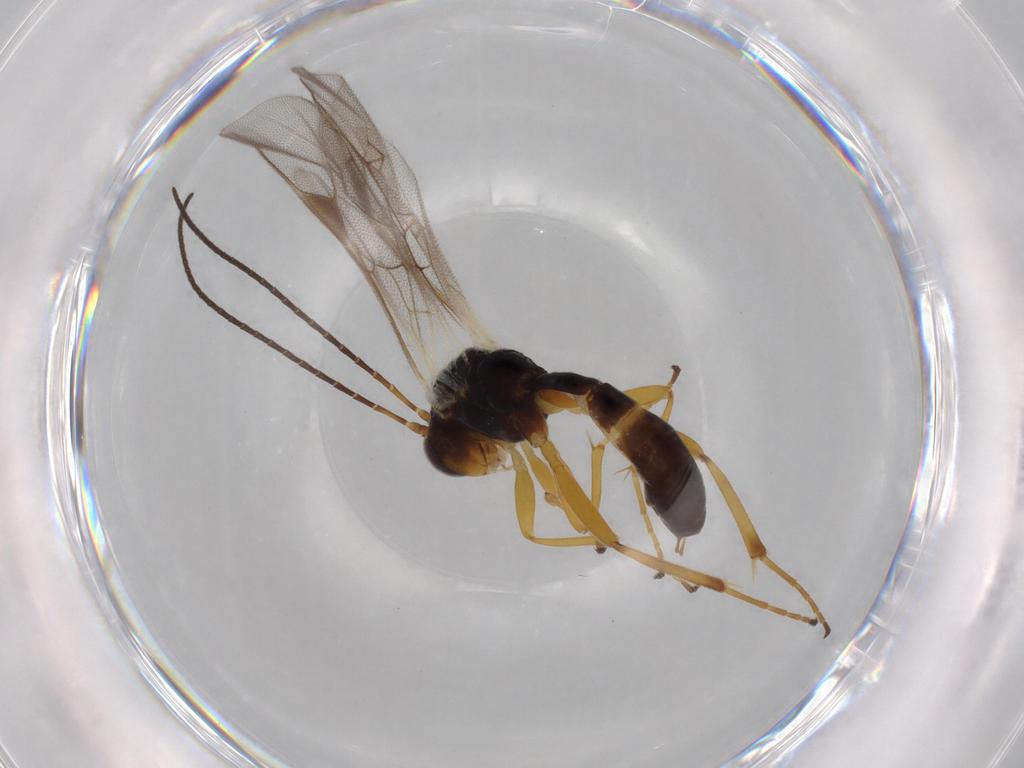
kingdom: Animalia
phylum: Arthropoda
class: Insecta
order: Hymenoptera
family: Ichneumonidae
